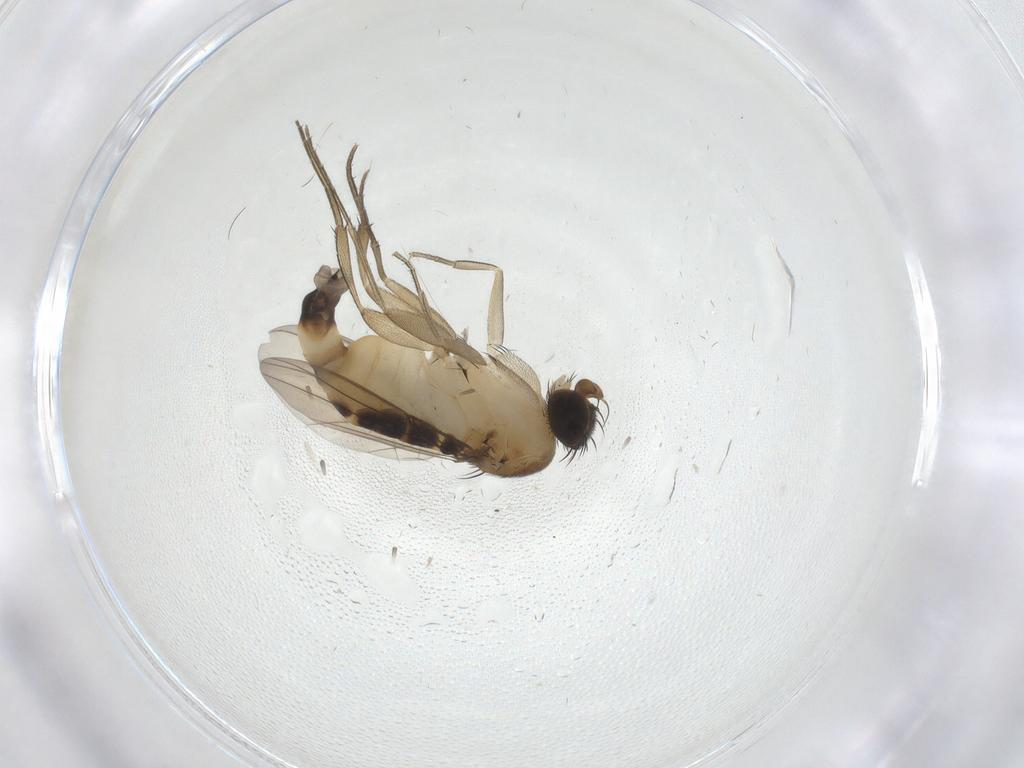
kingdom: Animalia
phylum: Arthropoda
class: Insecta
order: Diptera
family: Phoridae
